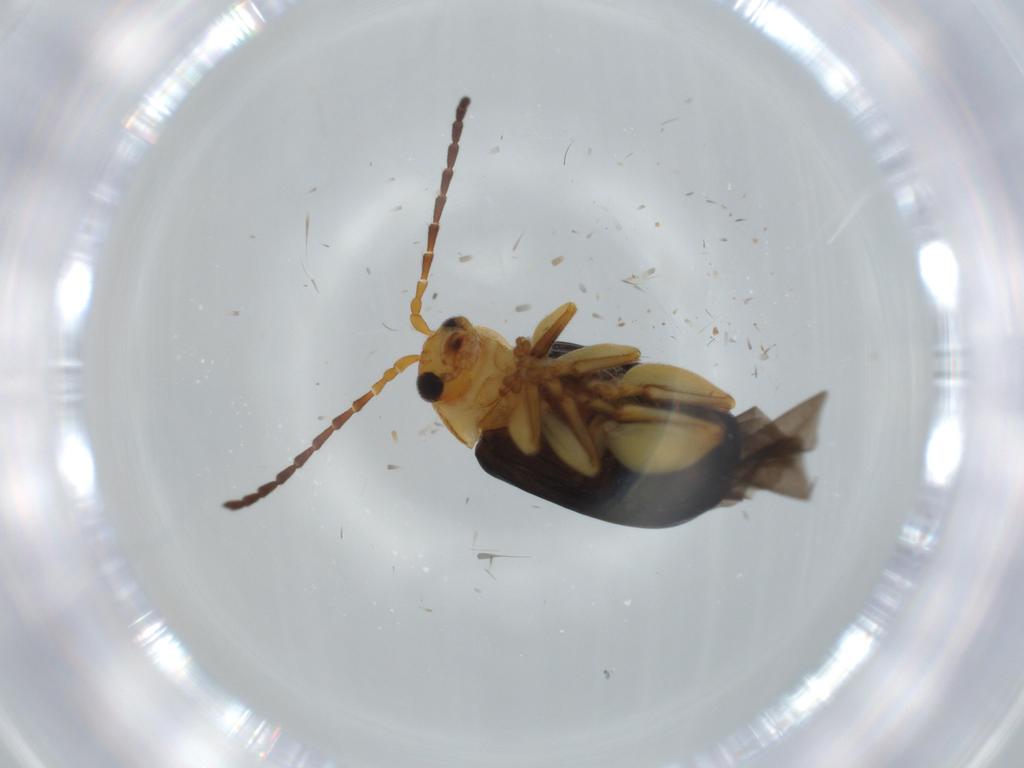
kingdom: Animalia
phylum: Arthropoda
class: Insecta
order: Coleoptera
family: Chrysomelidae
